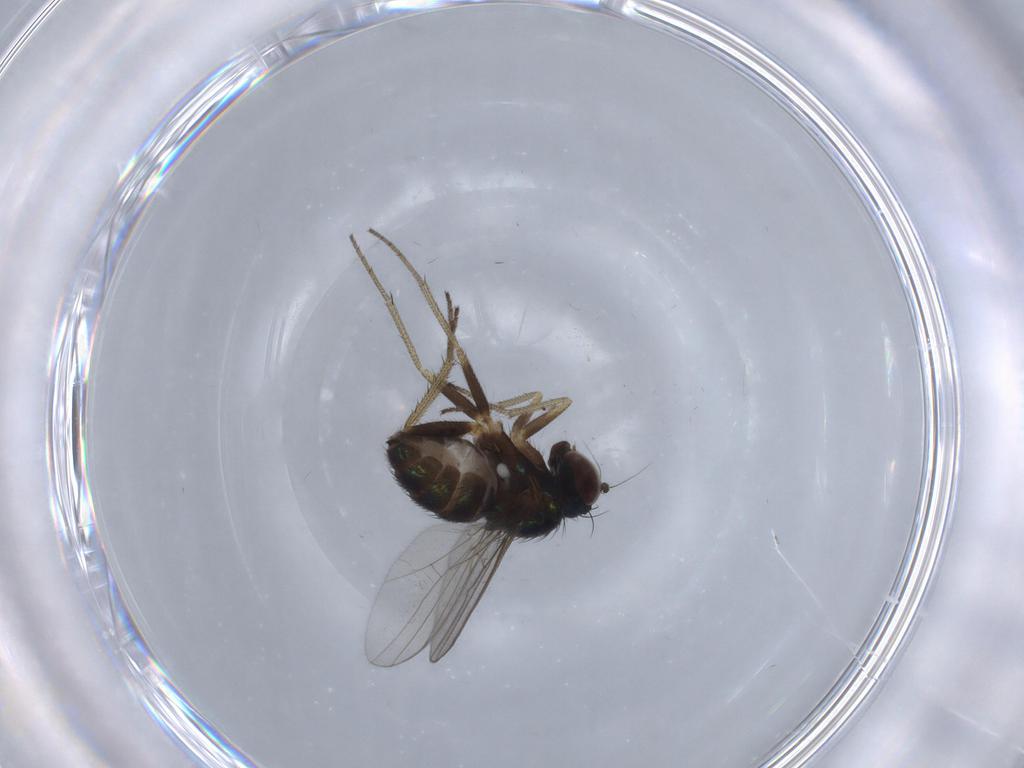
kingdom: Animalia
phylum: Arthropoda
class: Insecta
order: Diptera
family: Dolichopodidae
